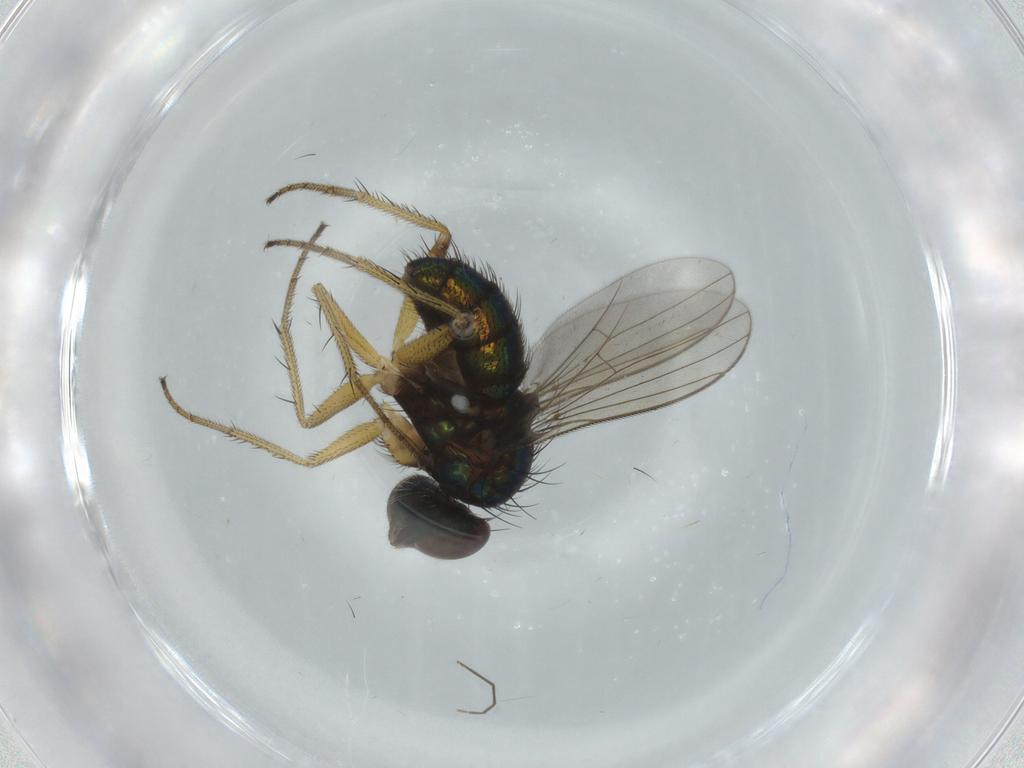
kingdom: Animalia
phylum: Arthropoda
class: Insecta
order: Diptera
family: Dolichopodidae
